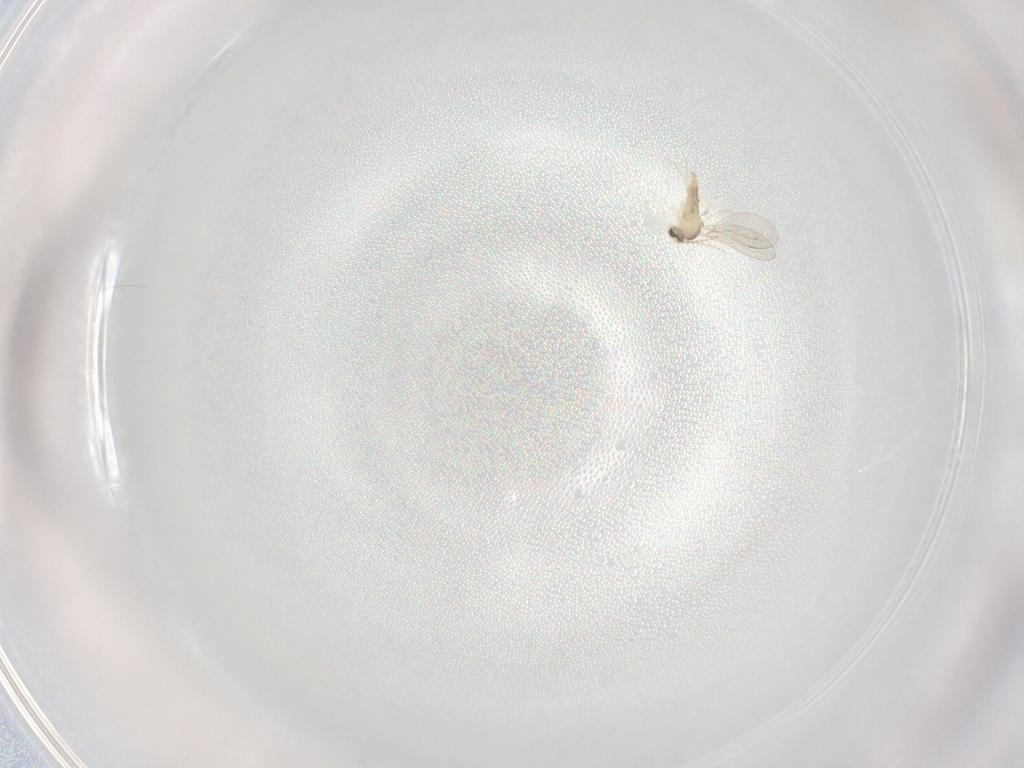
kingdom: Animalia
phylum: Arthropoda
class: Insecta
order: Diptera
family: Cecidomyiidae
